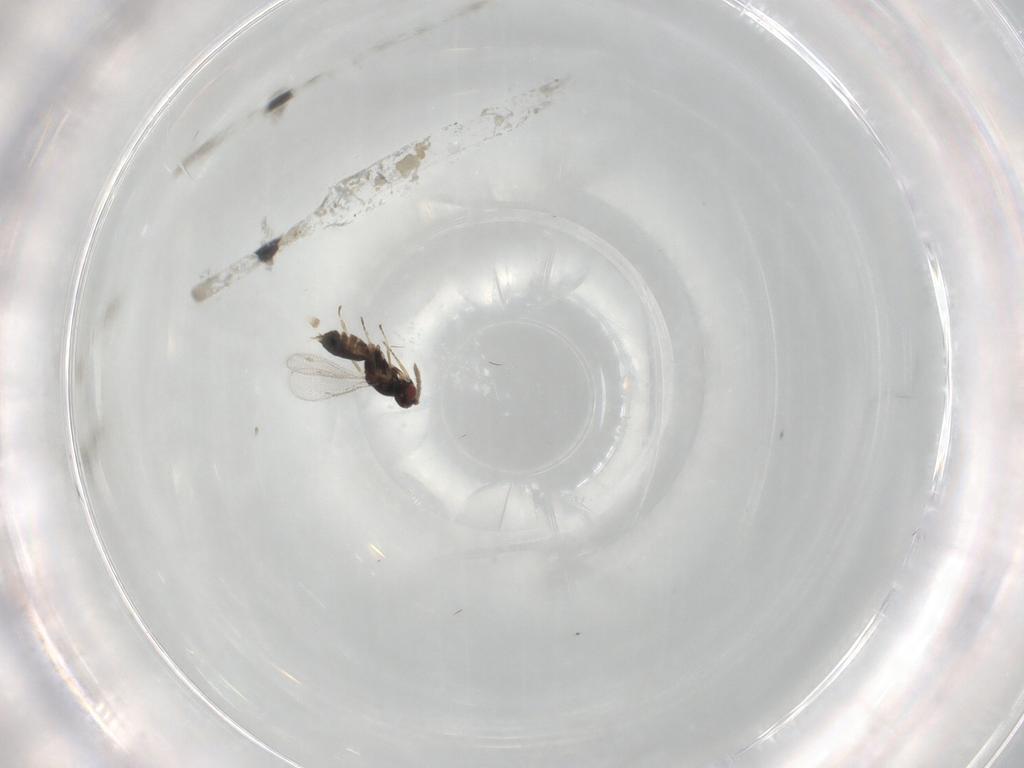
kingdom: Animalia
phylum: Arthropoda
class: Insecta
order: Hymenoptera
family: Eulophidae
